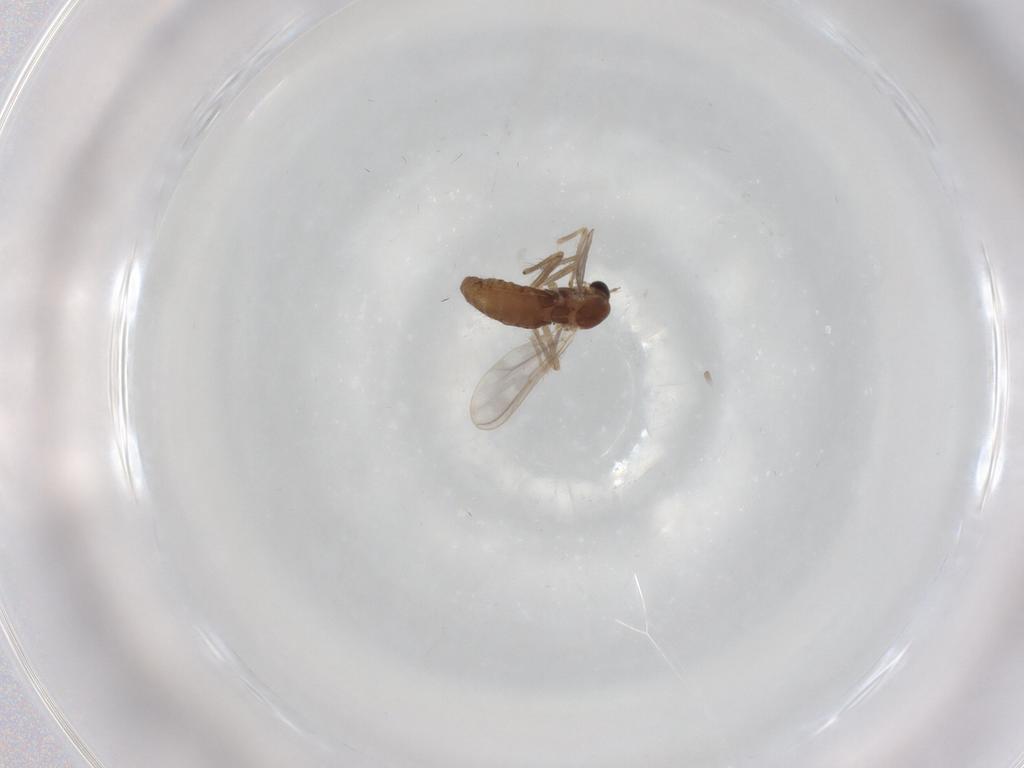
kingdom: Animalia
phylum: Arthropoda
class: Insecta
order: Diptera
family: Chironomidae
